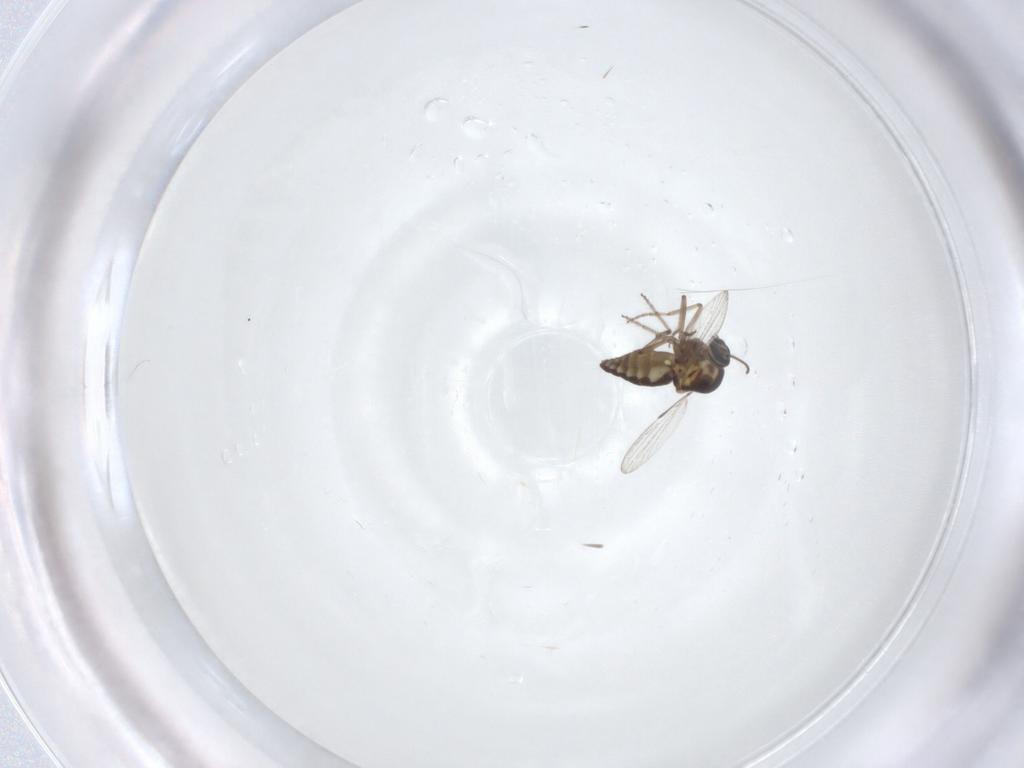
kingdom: Animalia
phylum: Arthropoda
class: Insecta
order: Diptera
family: Ceratopogonidae
